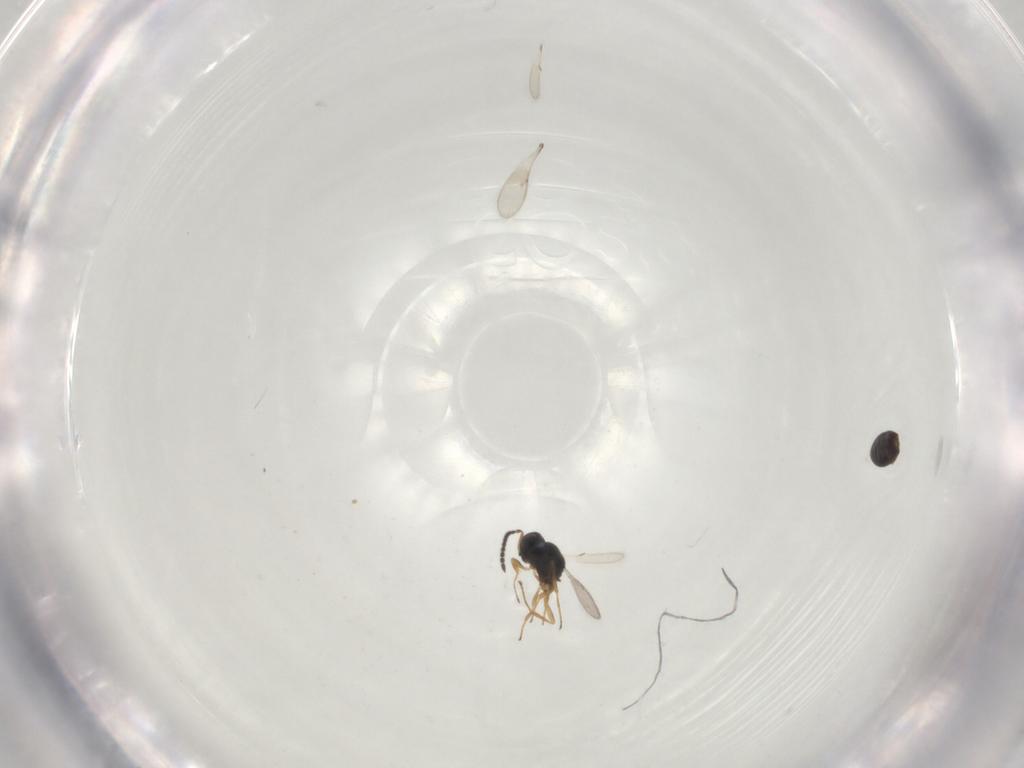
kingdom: Animalia
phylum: Arthropoda
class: Insecta
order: Hymenoptera
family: Scelionidae
